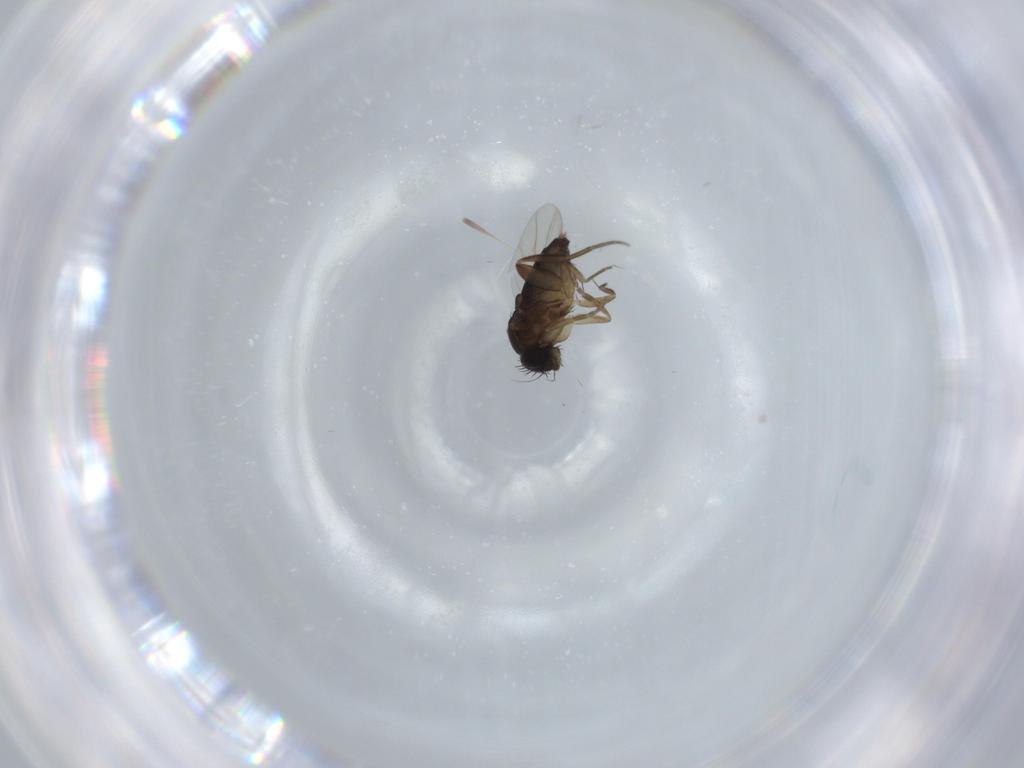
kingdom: Animalia
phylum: Arthropoda
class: Insecta
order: Diptera
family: Phoridae
